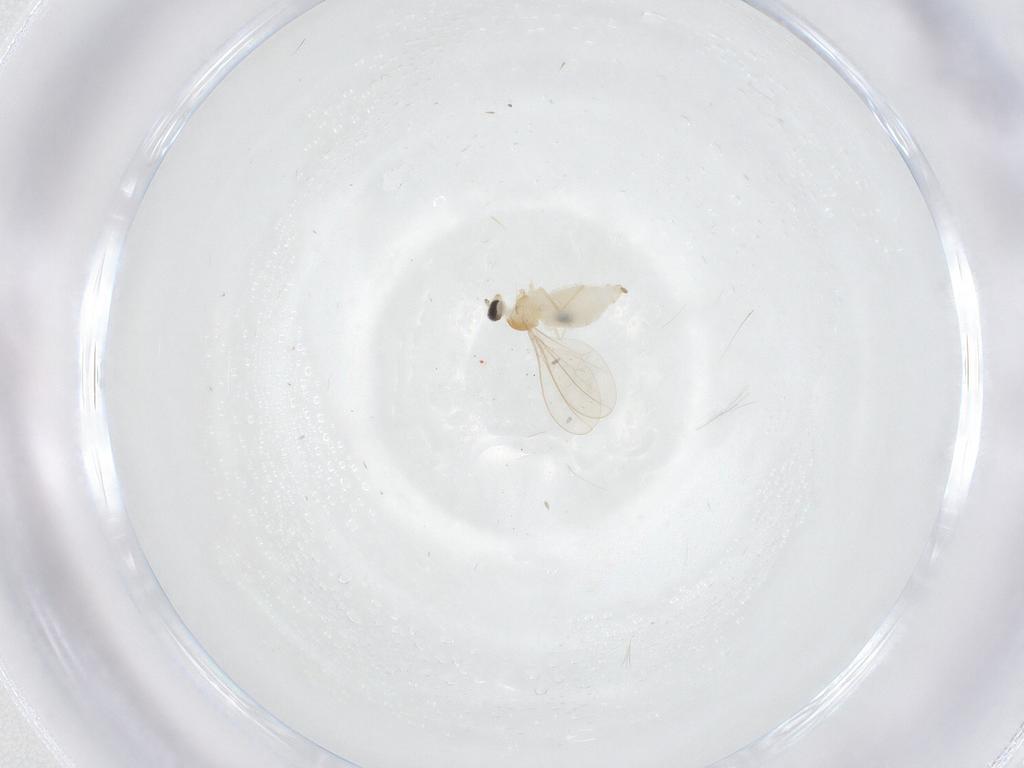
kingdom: Animalia
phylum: Arthropoda
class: Insecta
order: Diptera
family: Cecidomyiidae
